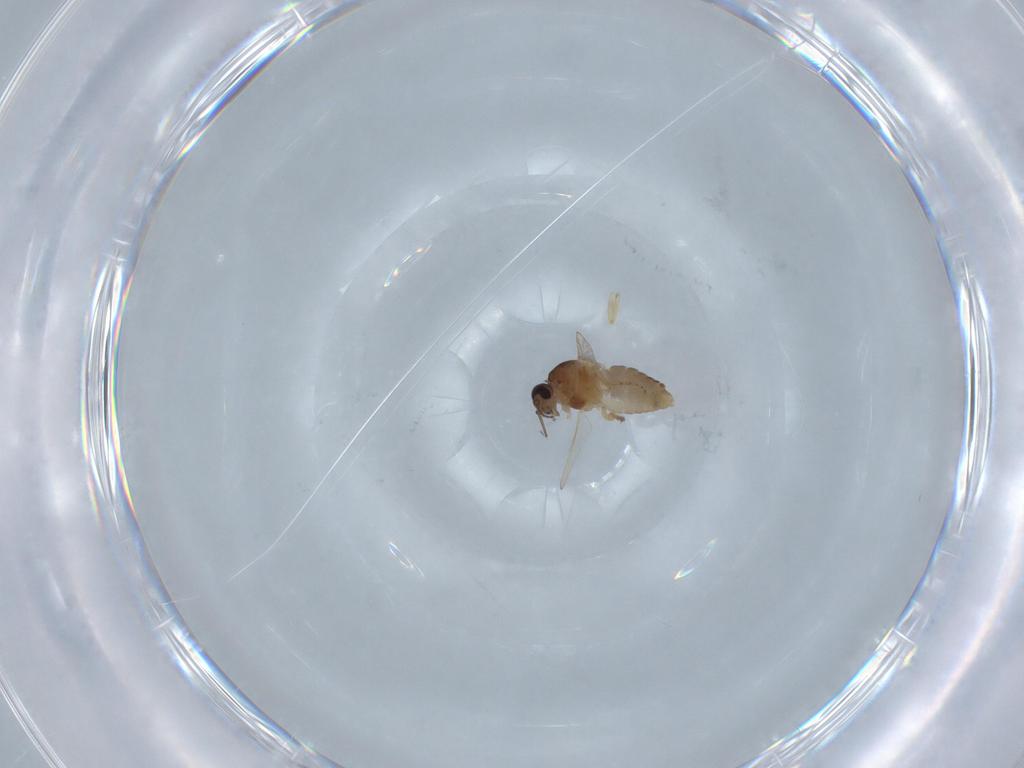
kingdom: Animalia
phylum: Arthropoda
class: Insecta
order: Diptera
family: Ceratopogonidae
